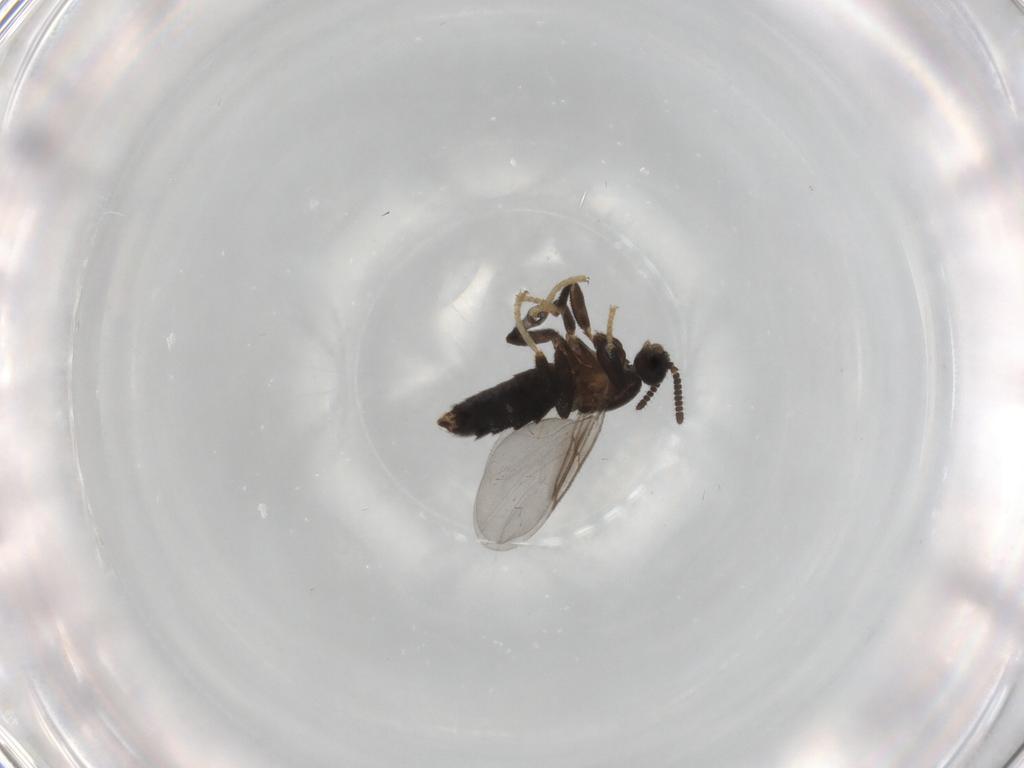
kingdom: Animalia
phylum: Arthropoda
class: Insecta
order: Diptera
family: Scatopsidae
